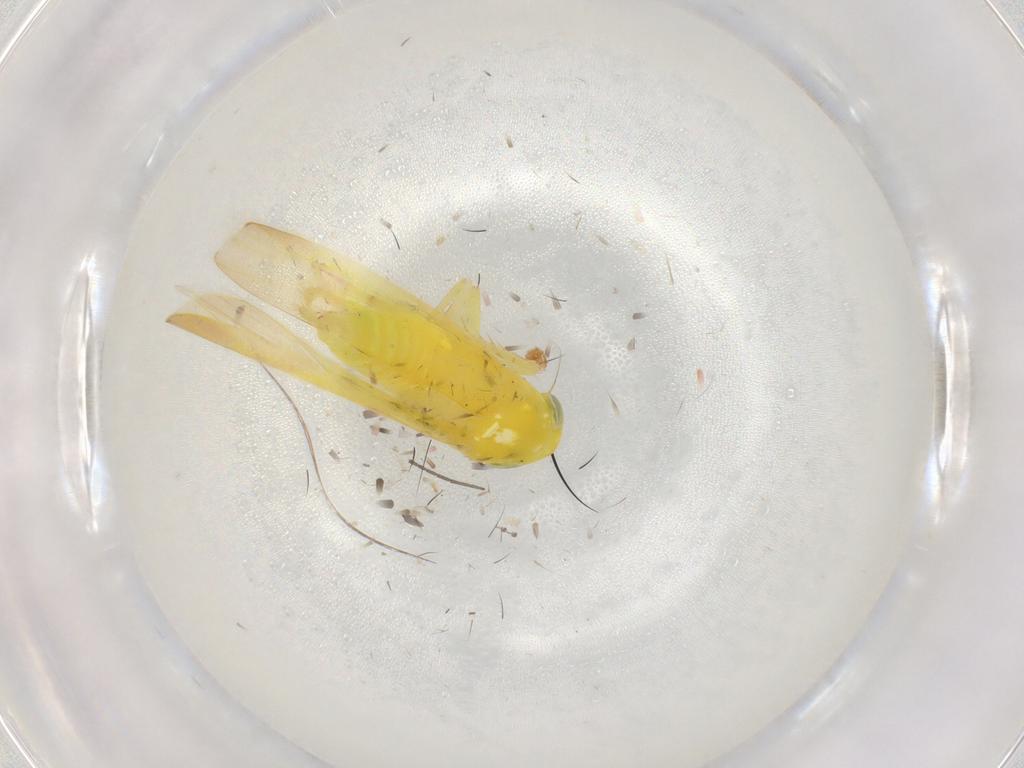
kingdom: Animalia
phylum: Arthropoda
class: Insecta
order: Hemiptera
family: Cicadellidae
